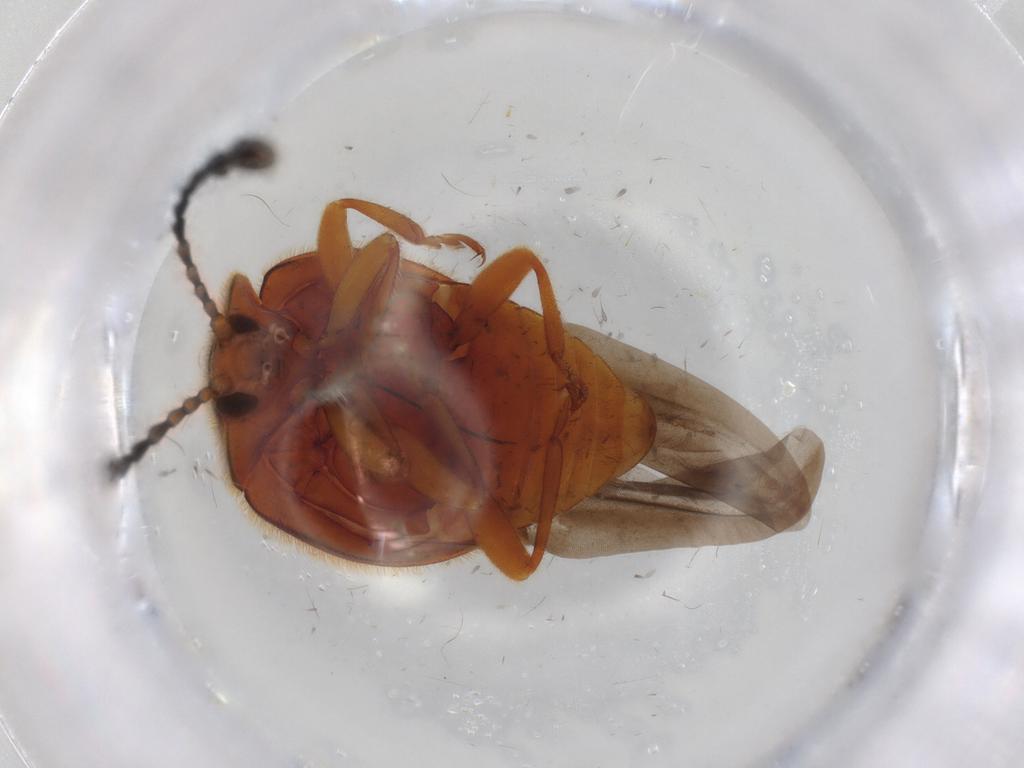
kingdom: Animalia
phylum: Arthropoda
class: Insecta
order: Coleoptera
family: Endomychidae
